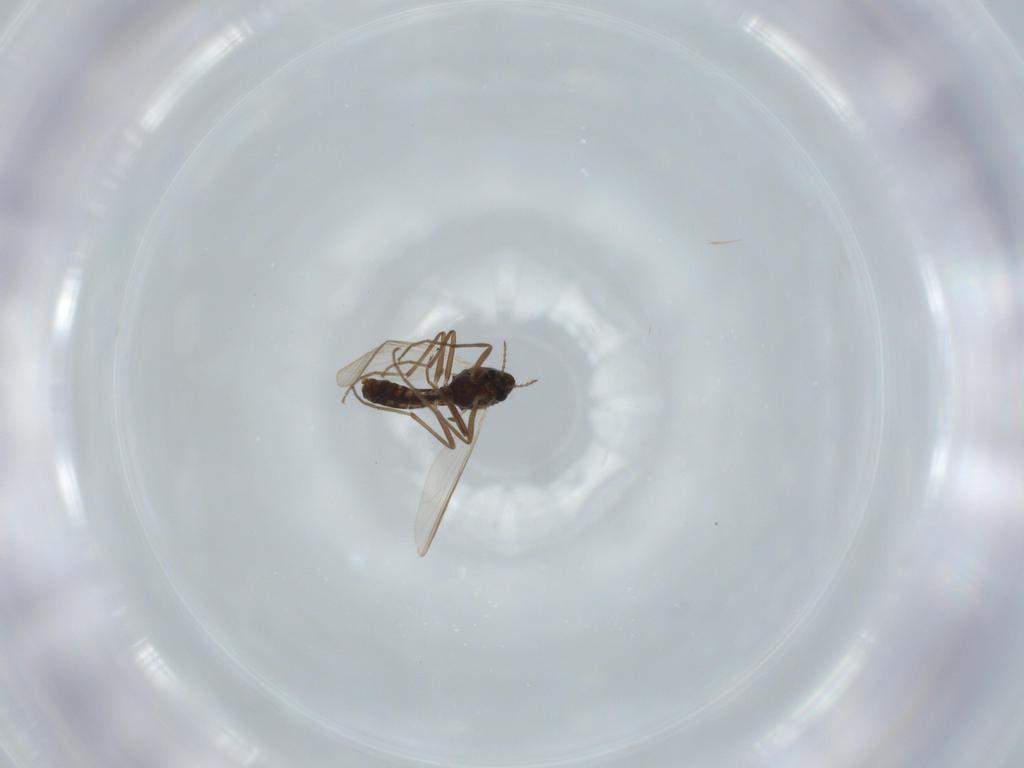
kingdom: Animalia
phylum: Arthropoda
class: Insecta
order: Diptera
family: Chironomidae
